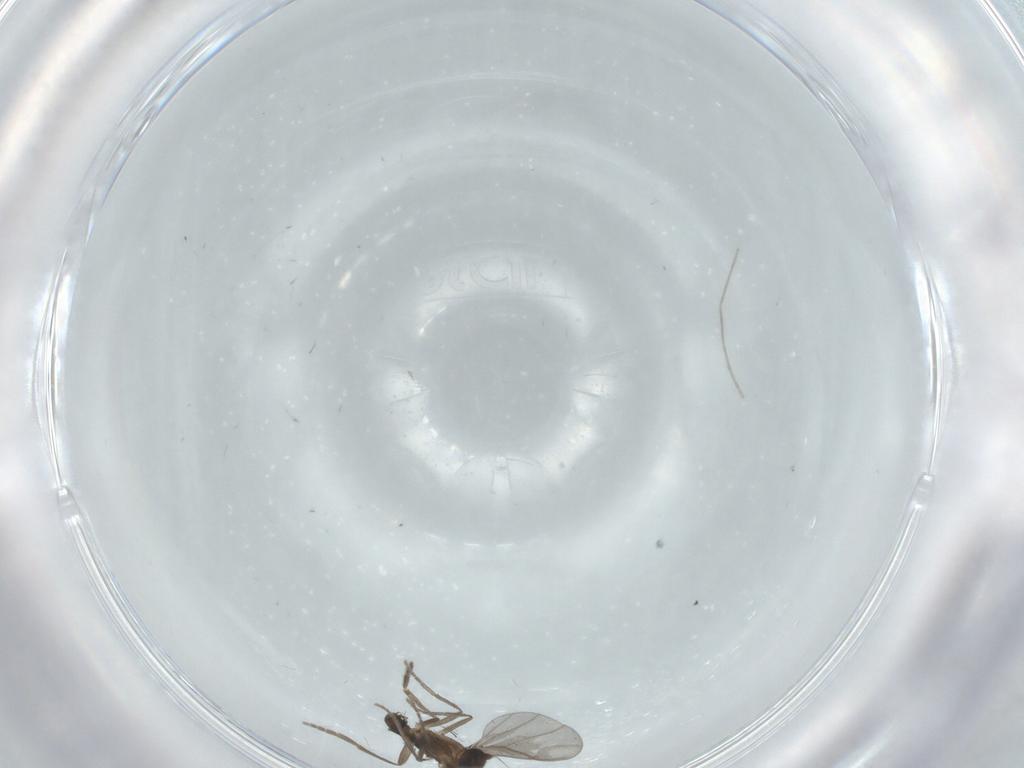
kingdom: Animalia
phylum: Arthropoda
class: Insecta
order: Diptera
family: Phoridae
